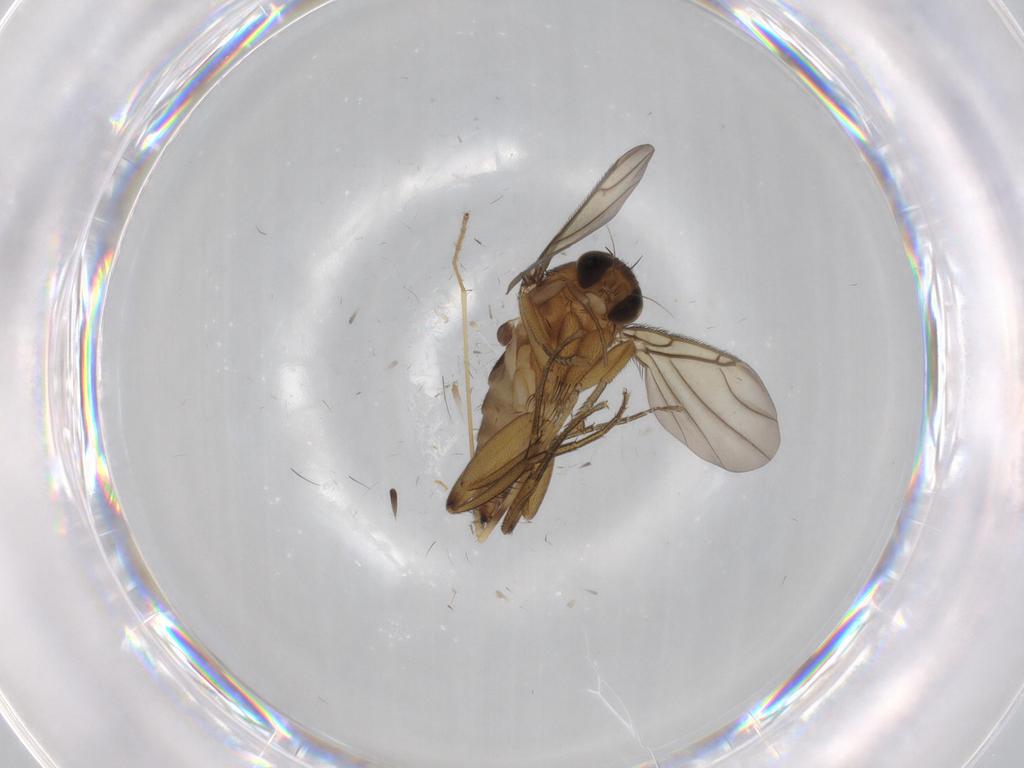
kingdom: Animalia
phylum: Arthropoda
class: Insecta
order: Diptera
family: Phoridae
